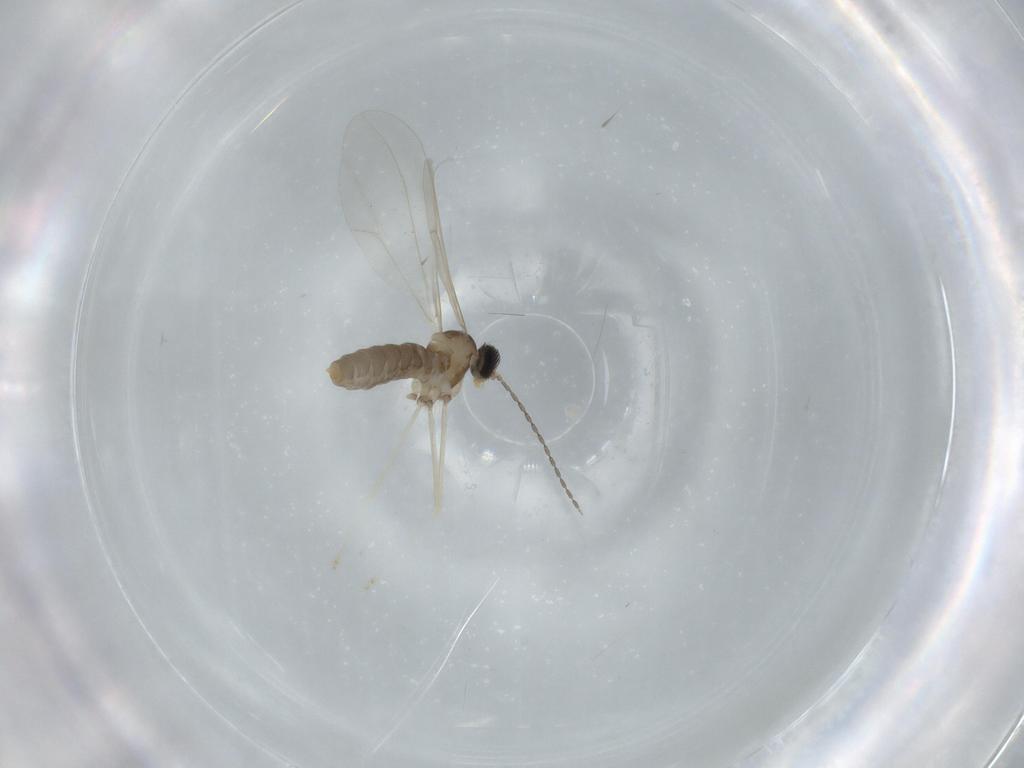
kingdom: Animalia
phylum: Arthropoda
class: Insecta
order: Diptera
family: Cecidomyiidae
